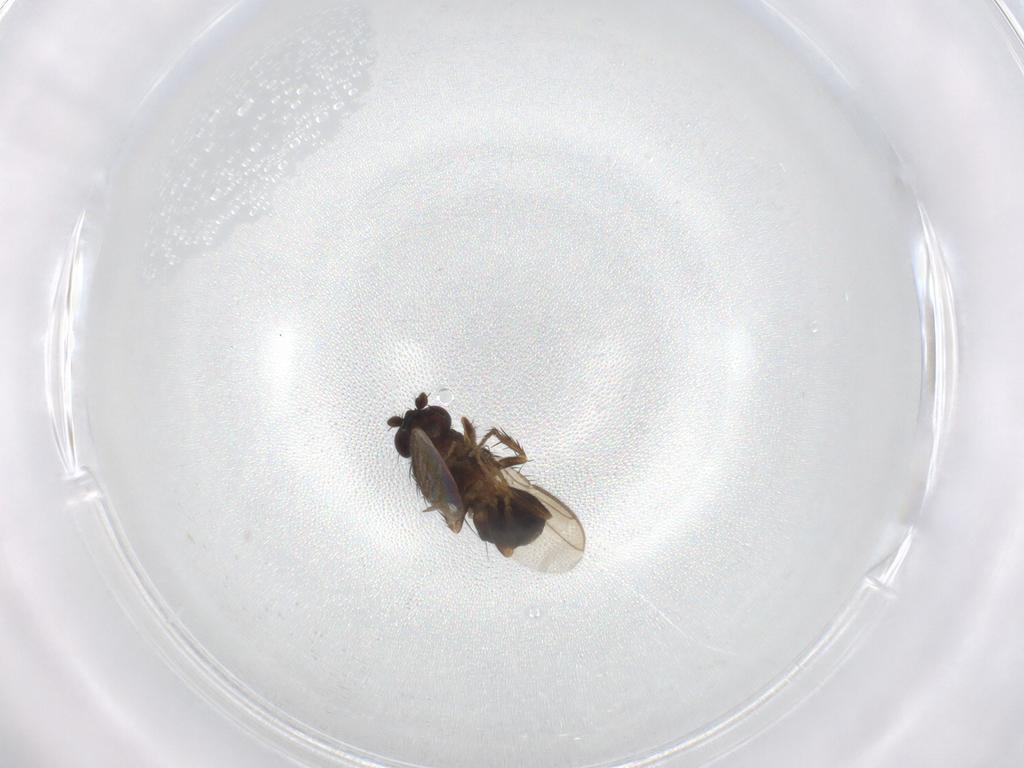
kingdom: Animalia
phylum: Arthropoda
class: Insecta
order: Diptera
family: Sphaeroceridae
